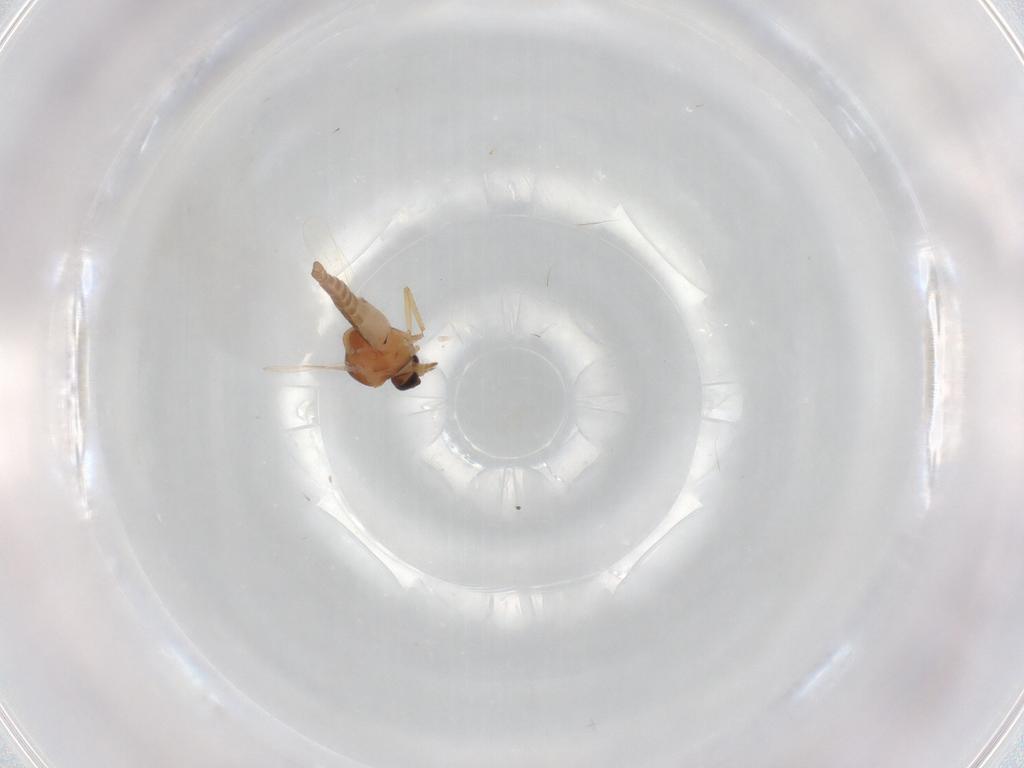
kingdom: Animalia
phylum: Arthropoda
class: Insecta
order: Diptera
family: Ceratopogonidae
